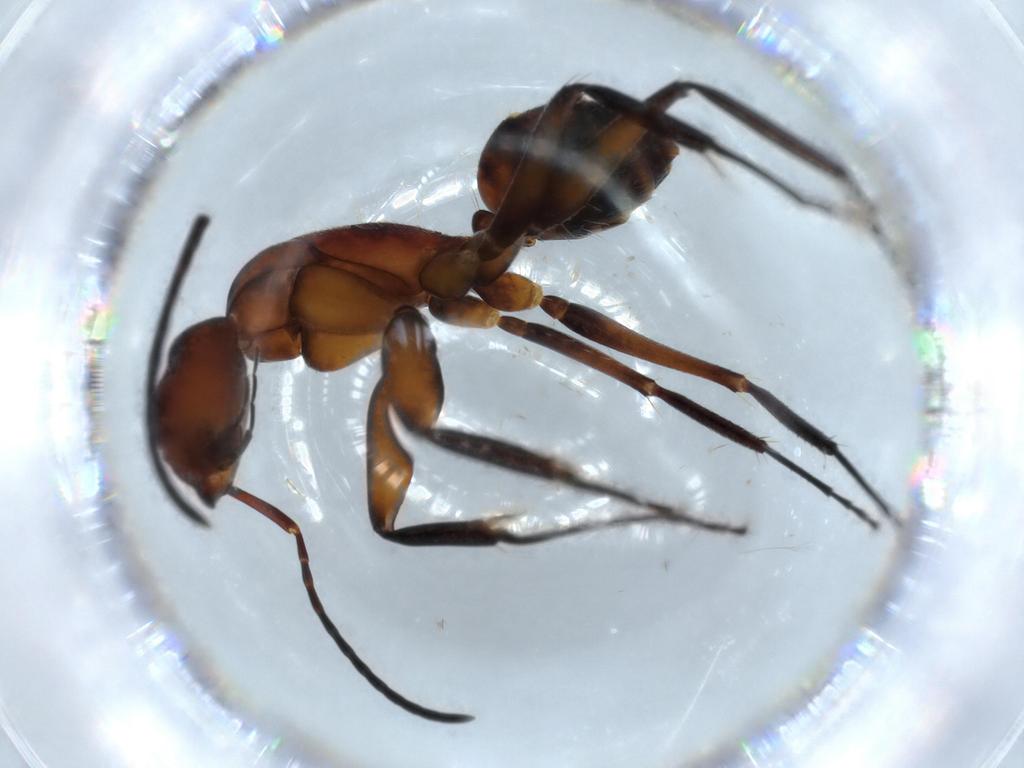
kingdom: Animalia
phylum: Arthropoda
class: Insecta
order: Hymenoptera
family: Formicidae
